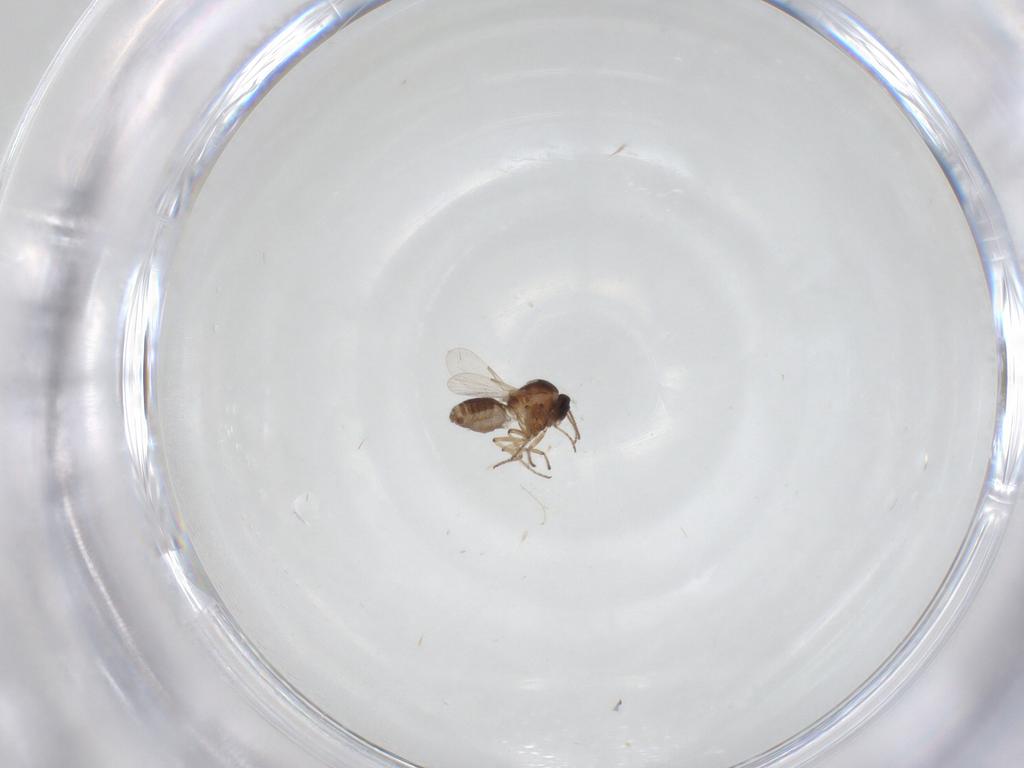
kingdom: Animalia
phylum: Arthropoda
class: Insecta
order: Diptera
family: Ceratopogonidae
